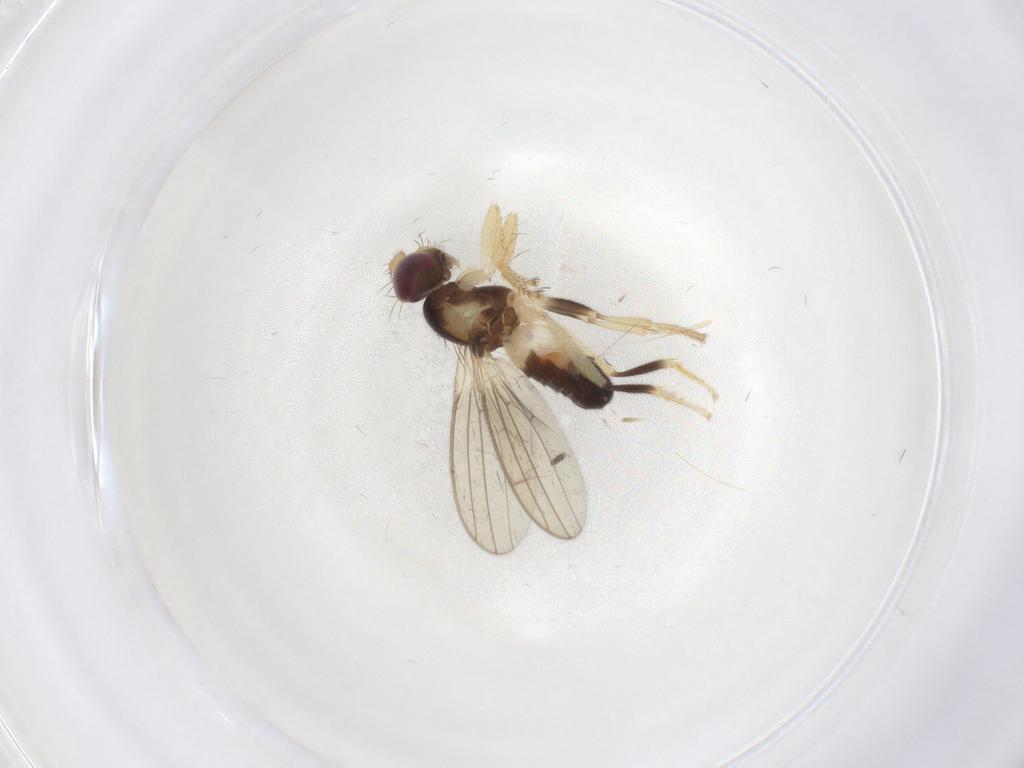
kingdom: Animalia
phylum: Arthropoda
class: Insecta
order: Diptera
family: Periscelididae
